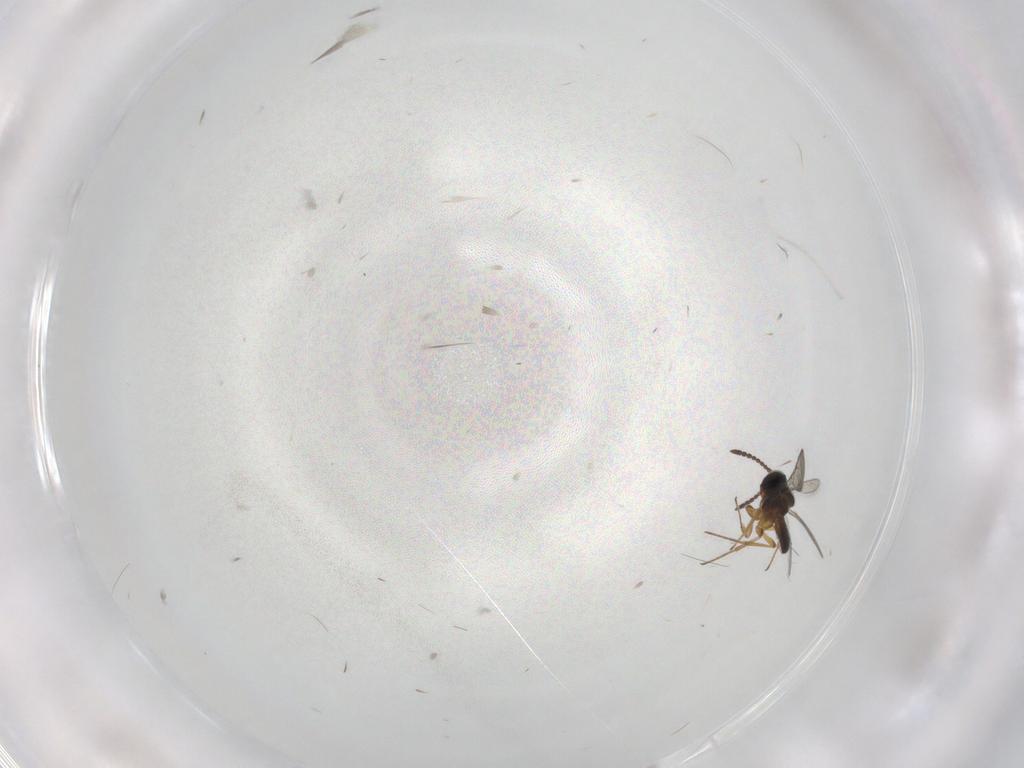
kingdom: Animalia
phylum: Arthropoda
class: Insecta
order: Hymenoptera
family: Scelionidae
